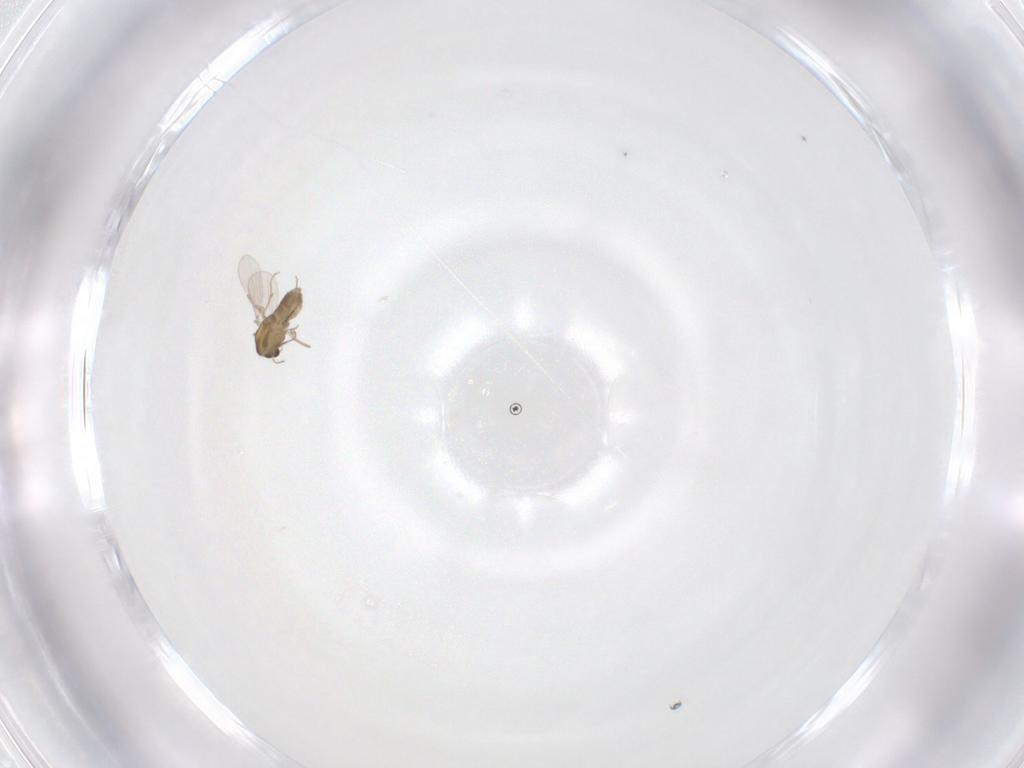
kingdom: Animalia
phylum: Arthropoda
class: Insecta
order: Diptera
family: Chironomidae
